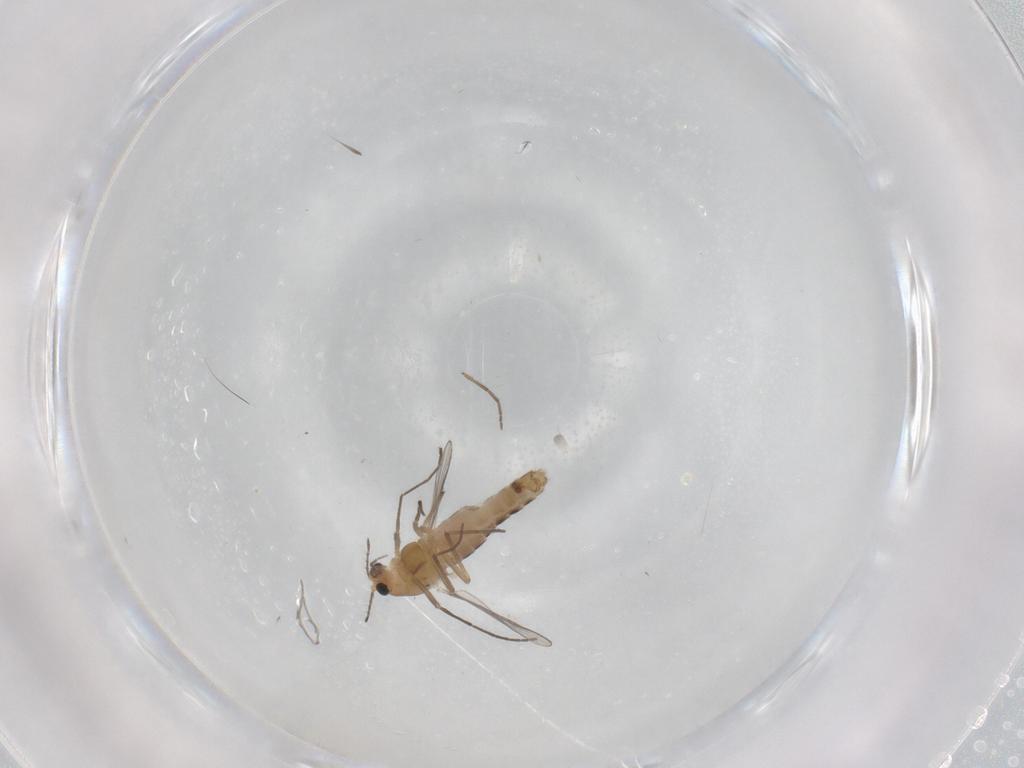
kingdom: Animalia
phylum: Arthropoda
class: Insecta
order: Diptera
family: Chironomidae
